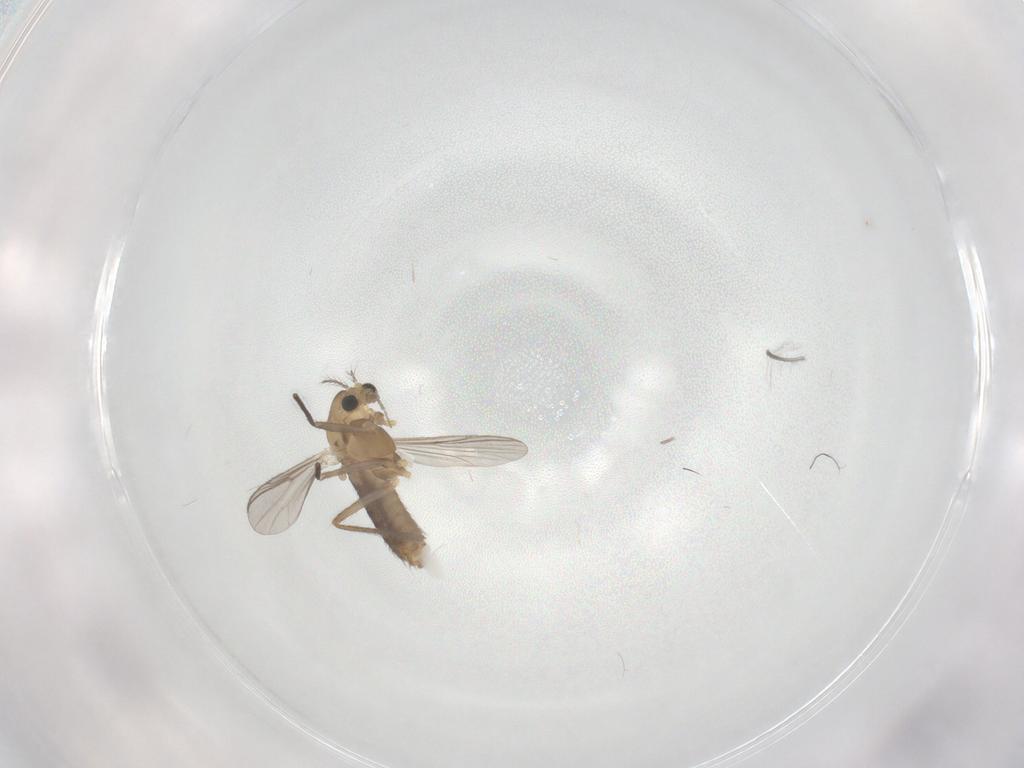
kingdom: Animalia
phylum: Arthropoda
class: Insecta
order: Diptera
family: Chironomidae
